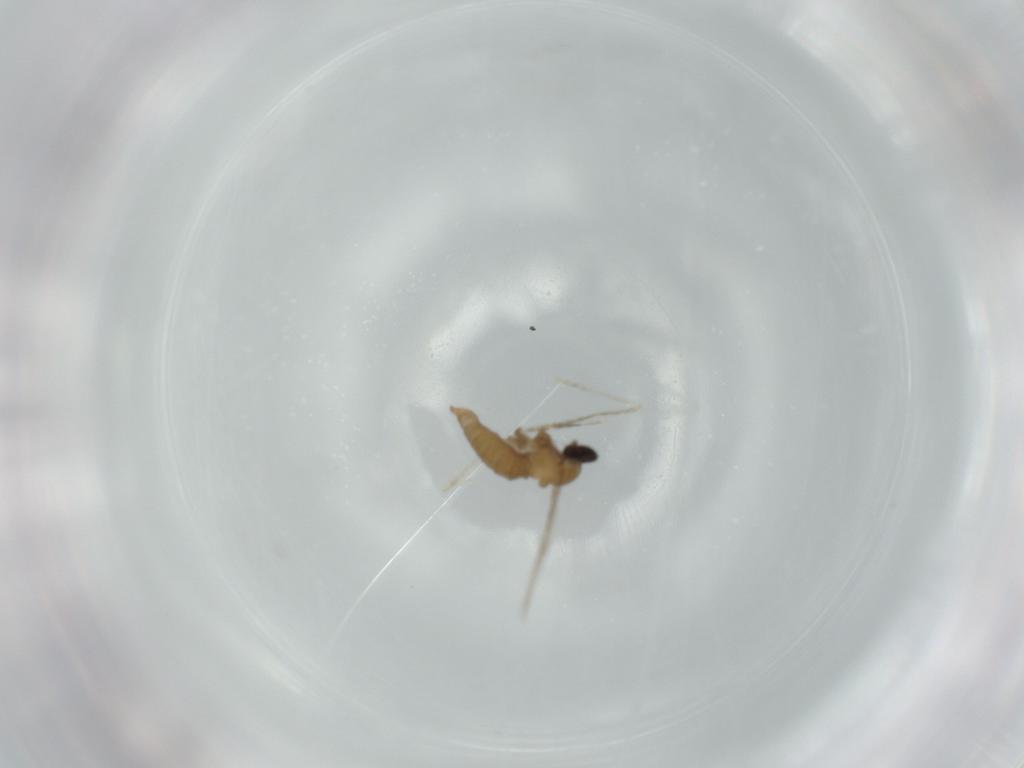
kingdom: Animalia
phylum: Arthropoda
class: Insecta
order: Diptera
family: Cecidomyiidae
